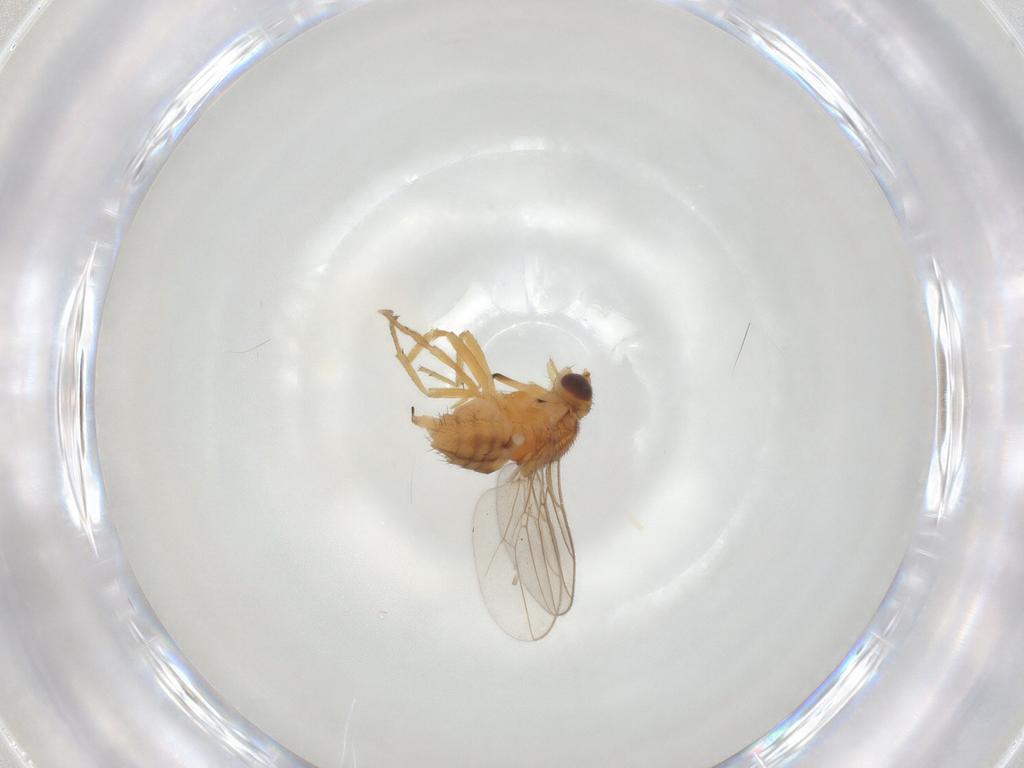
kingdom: Animalia
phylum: Arthropoda
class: Insecta
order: Diptera
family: Chloropidae
